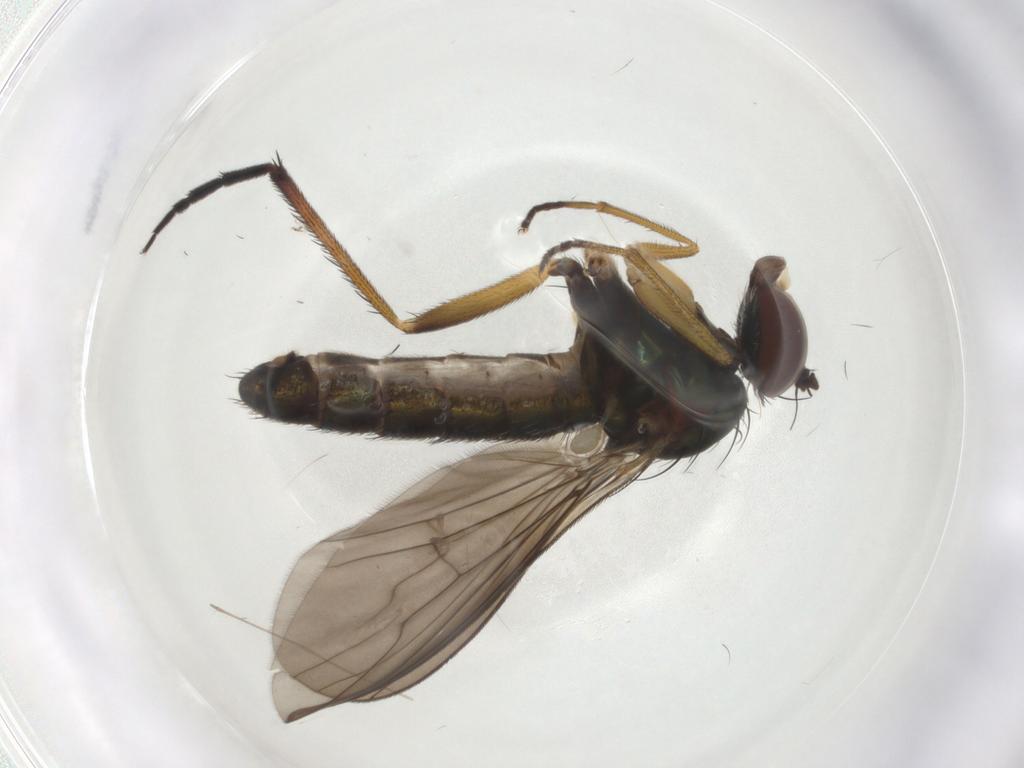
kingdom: Animalia
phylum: Arthropoda
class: Insecta
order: Diptera
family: Dolichopodidae
